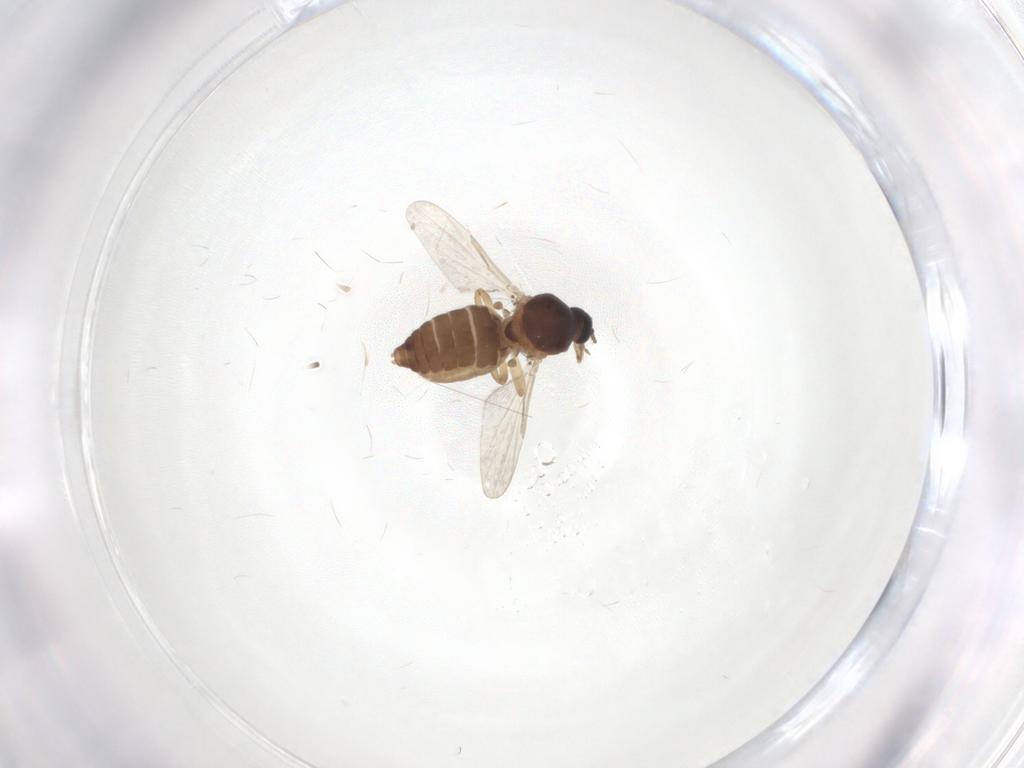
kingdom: Animalia
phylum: Arthropoda
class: Insecta
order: Diptera
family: Ceratopogonidae
